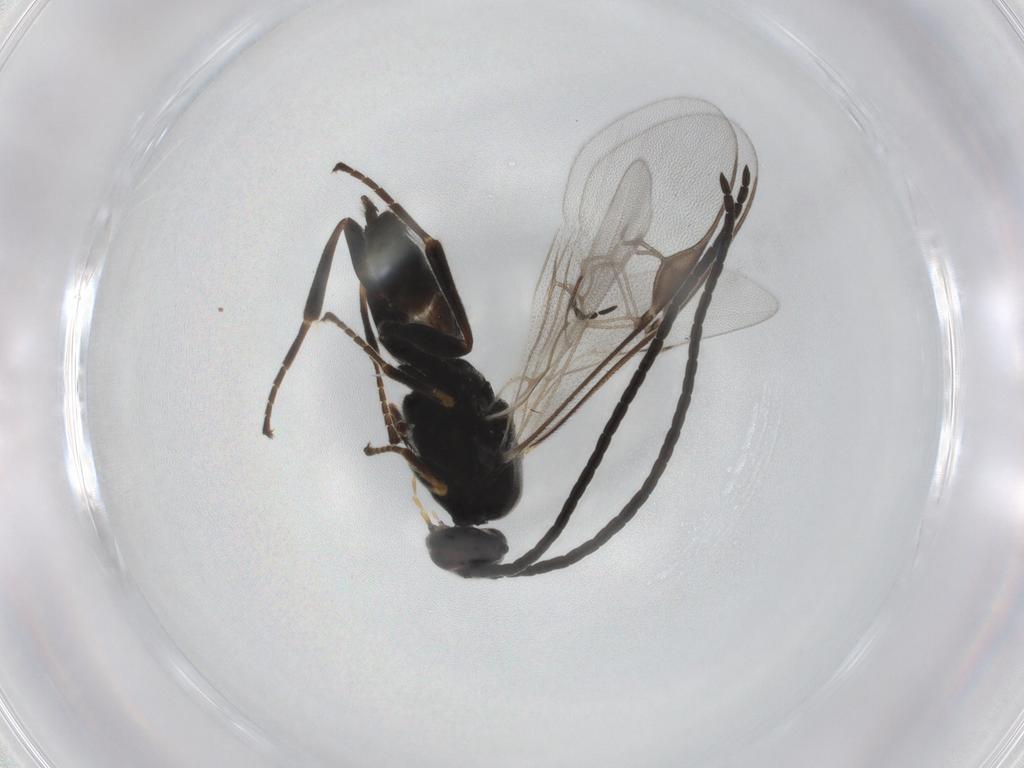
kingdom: Animalia
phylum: Arthropoda
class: Insecta
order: Hymenoptera
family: Braconidae
